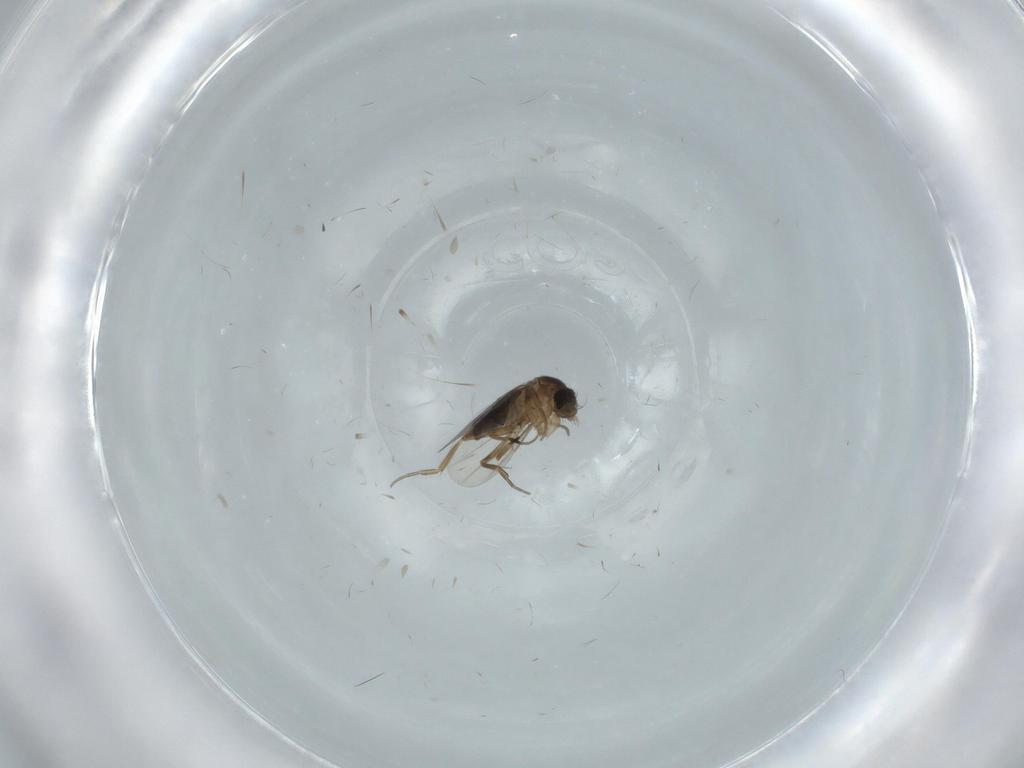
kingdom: Animalia
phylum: Arthropoda
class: Insecta
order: Diptera
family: Phoridae
